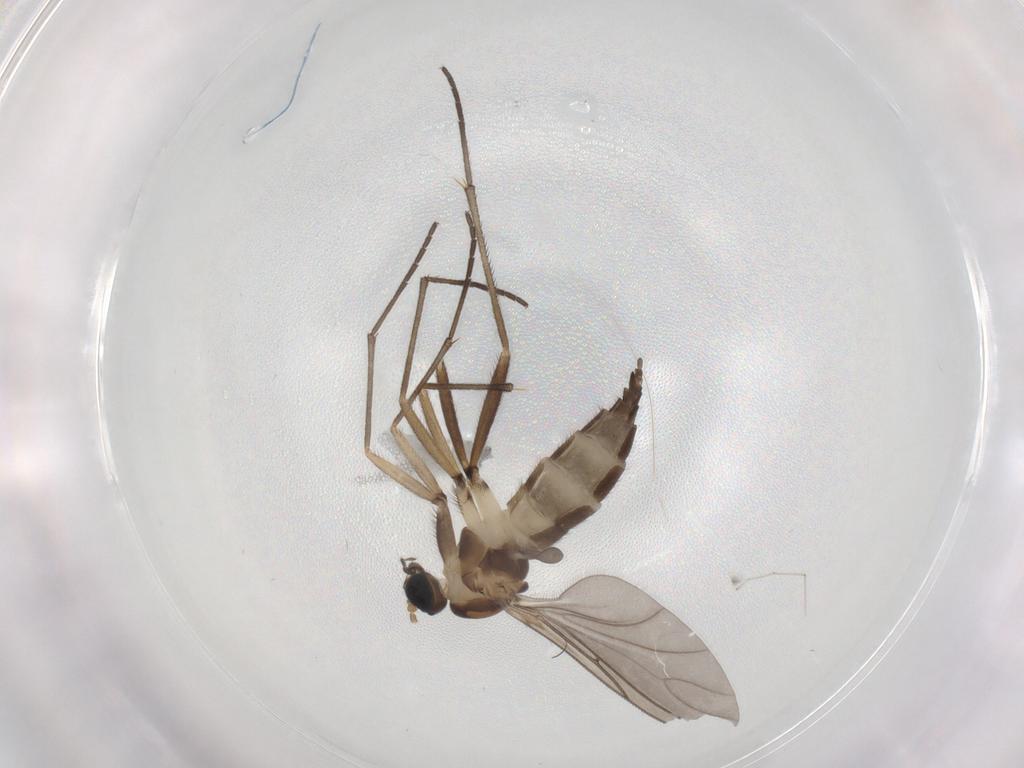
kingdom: Animalia
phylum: Arthropoda
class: Insecta
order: Diptera
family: Sciaridae
